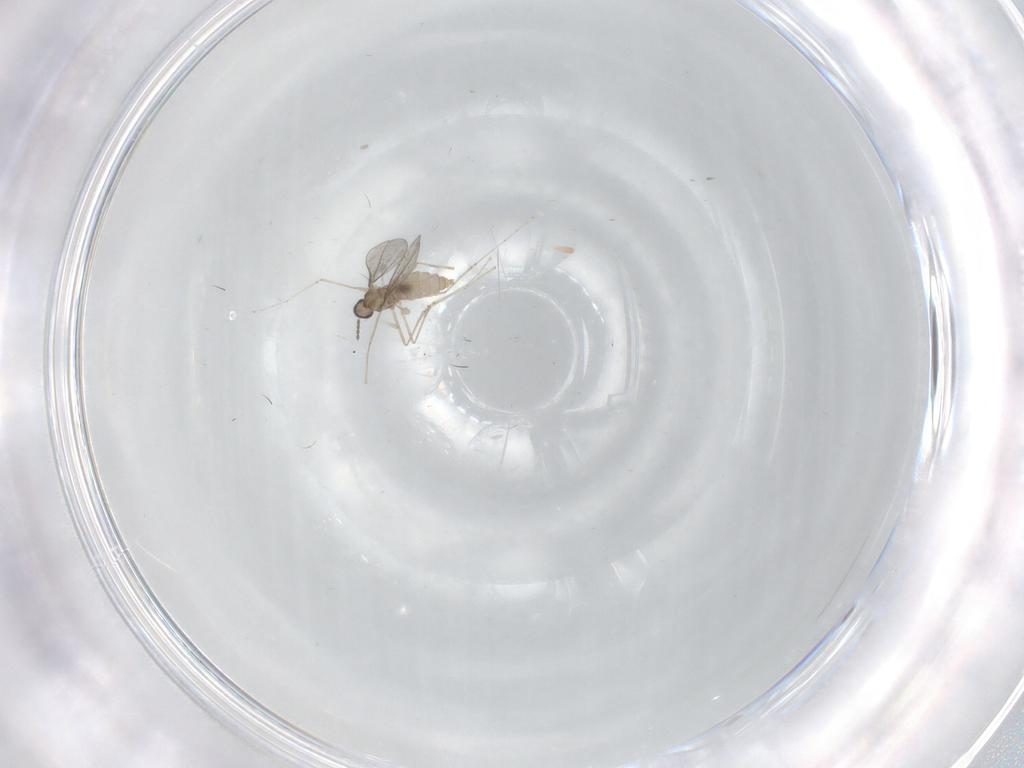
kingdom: Animalia
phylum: Arthropoda
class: Insecta
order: Diptera
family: Cecidomyiidae
